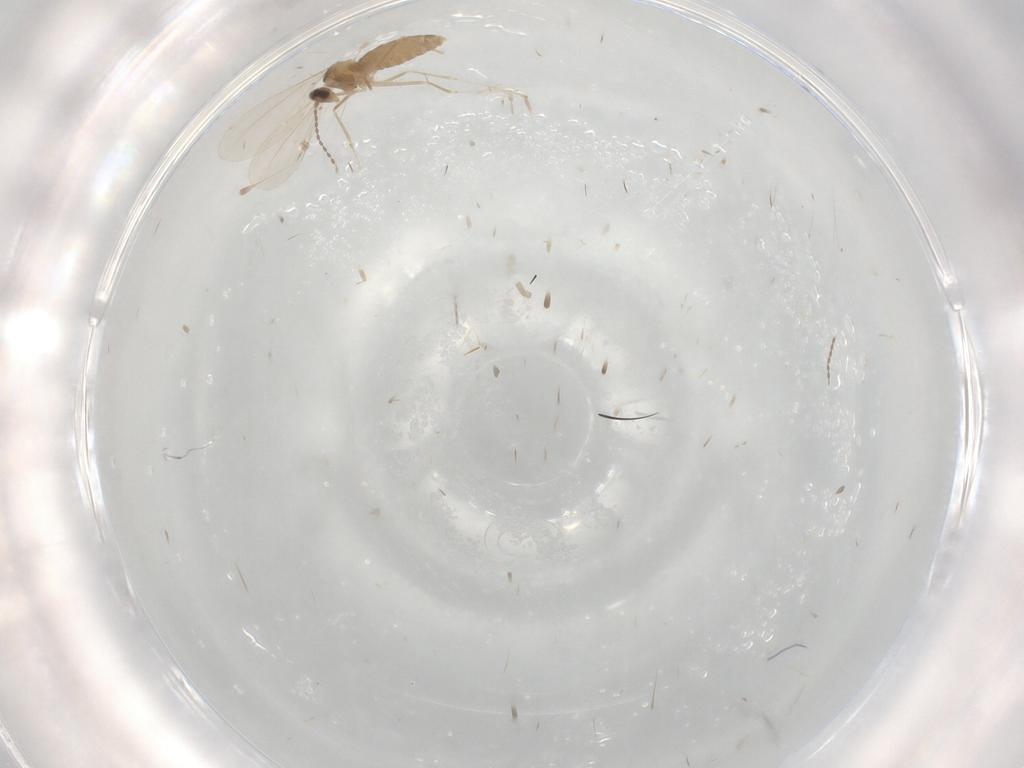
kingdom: Animalia
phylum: Arthropoda
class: Insecta
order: Diptera
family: Cecidomyiidae
